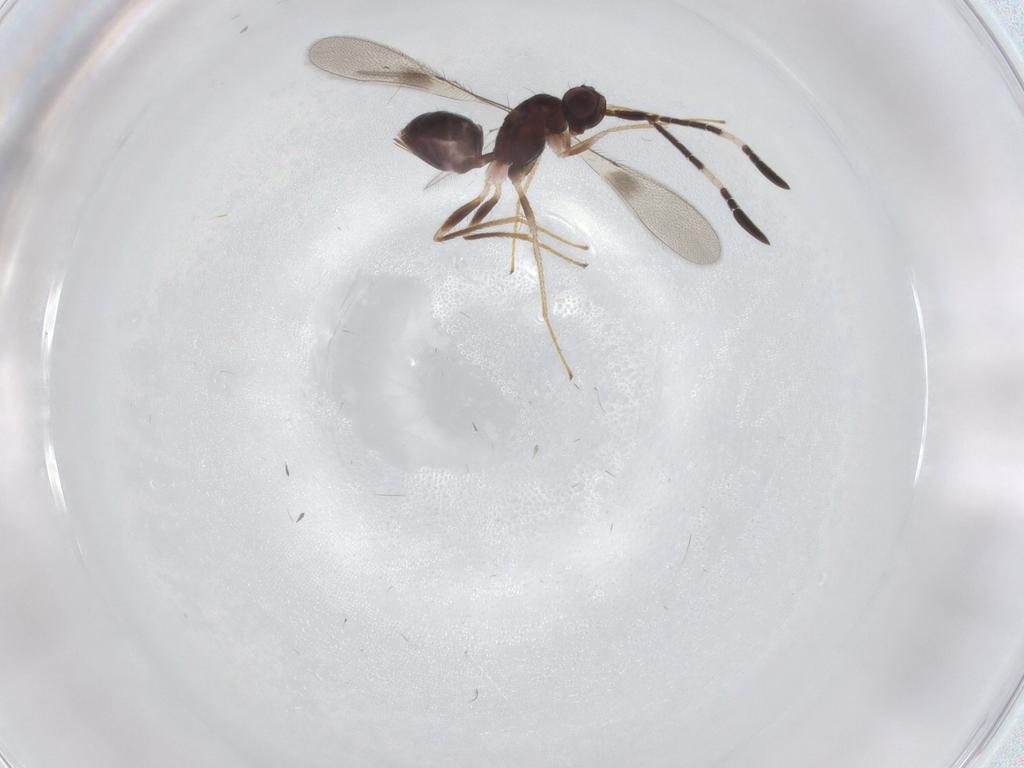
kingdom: Animalia
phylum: Arthropoda
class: Insecta
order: Hymenoptera
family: Mymaridae
